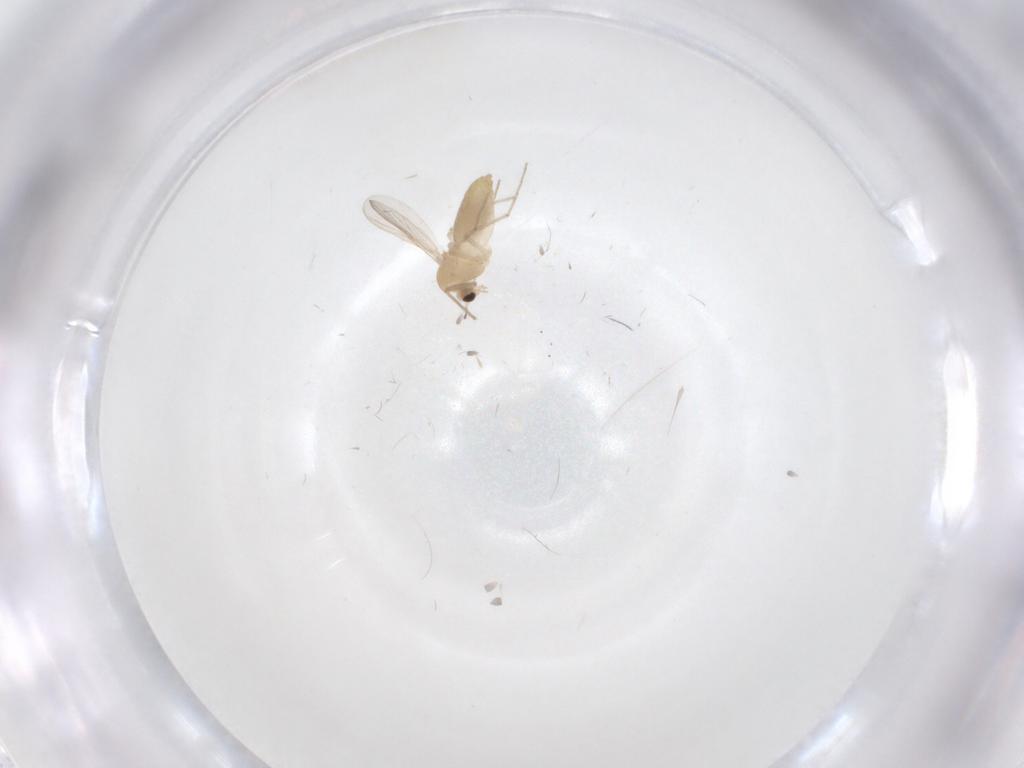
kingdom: Animalia
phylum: Arthropoda
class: Insecta
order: Diptera
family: Chironomidae
